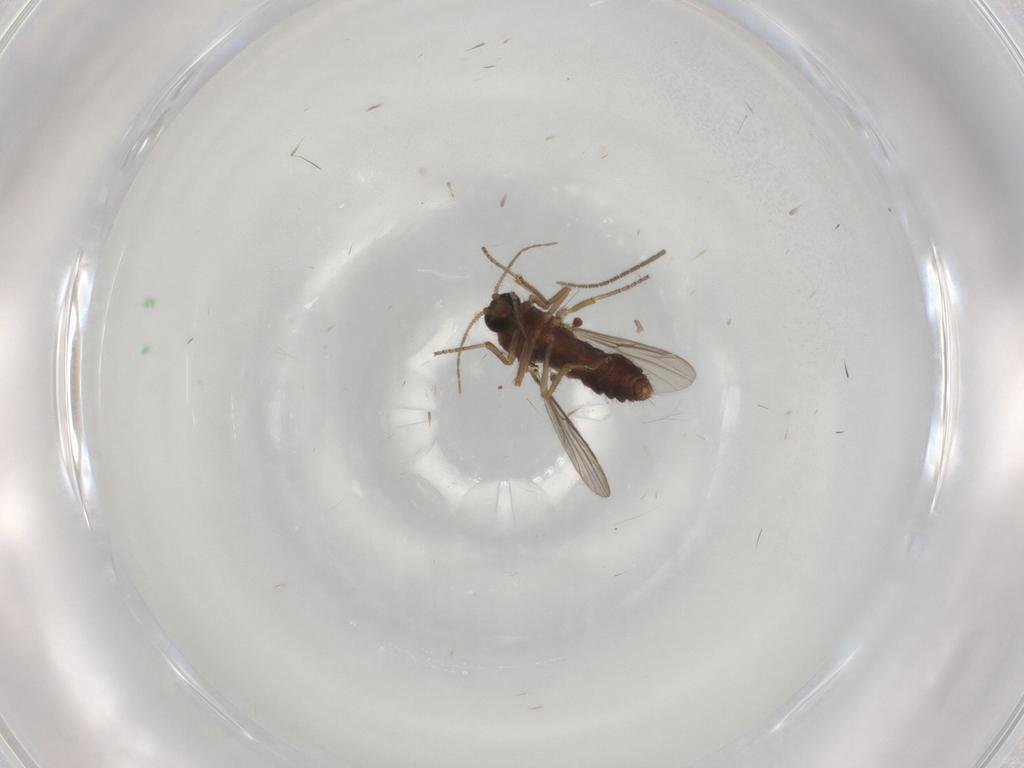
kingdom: Animalia
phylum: Arthropoda
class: Insecta
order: Diptera
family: Ceratopogonidae
